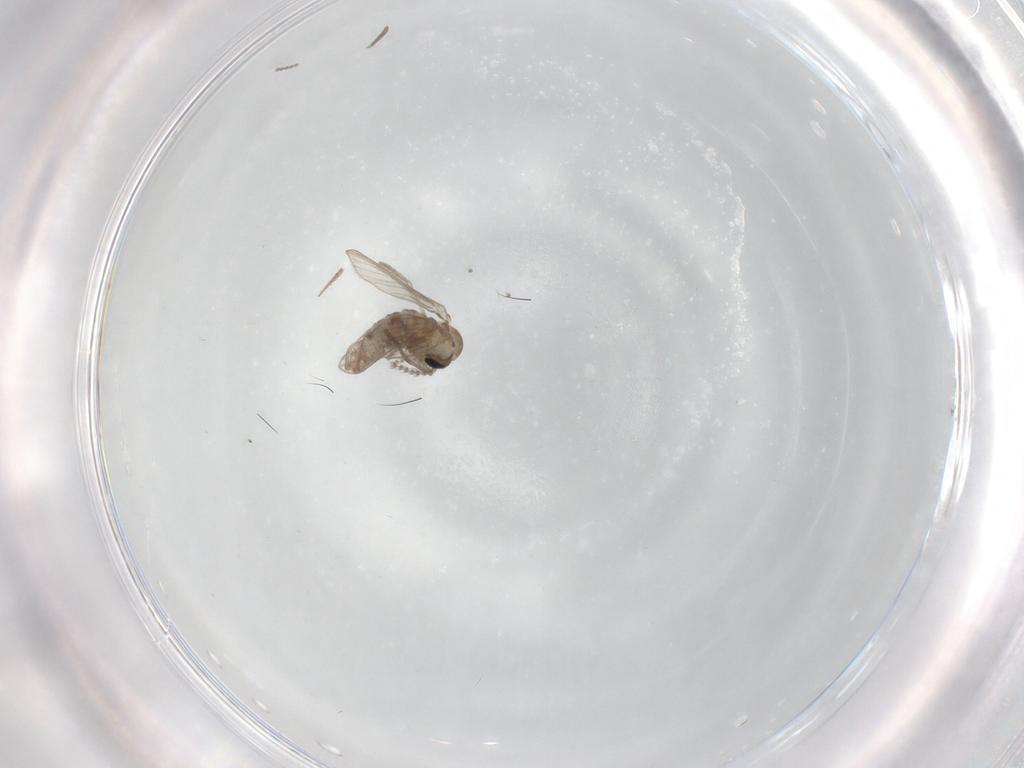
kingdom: Animalia
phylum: Arthropoda
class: Insecta
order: Diptera
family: Psychodidae
